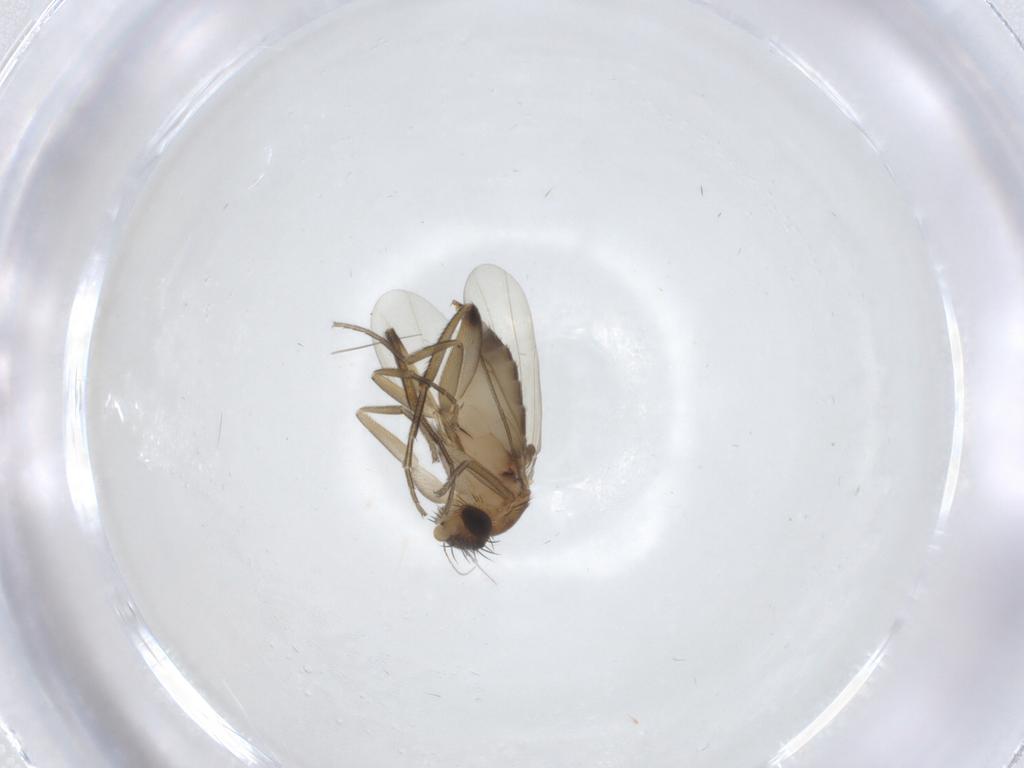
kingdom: Animalia
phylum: Arthropoda
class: Insecta
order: Diptera
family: Phoridae
